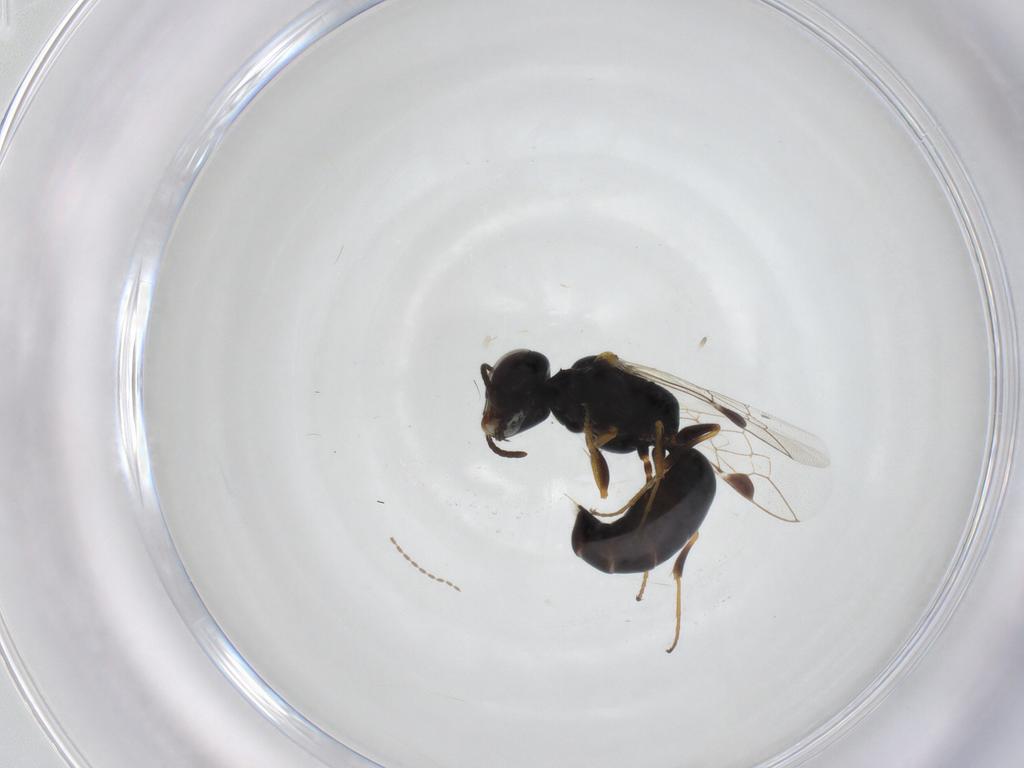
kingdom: Animalia
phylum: Arthropoda
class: Insecta
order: Hymenoptera
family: Crabronidae
